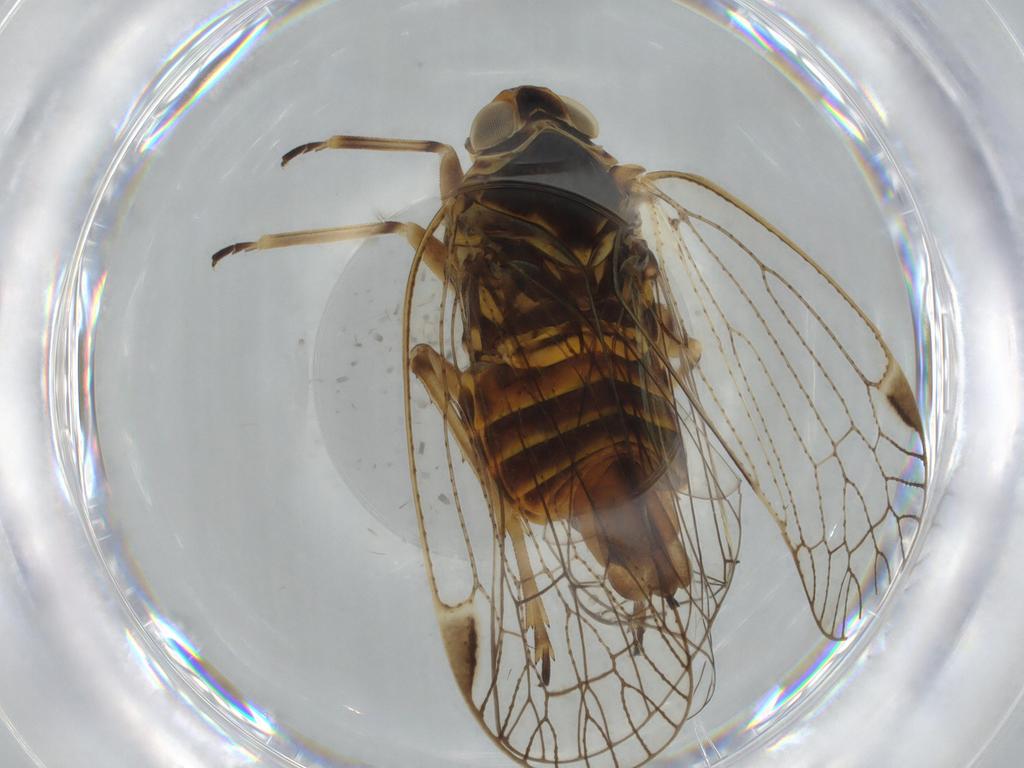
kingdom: Animalia
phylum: Arthropoda
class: Insecta
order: Hemiptera
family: Cixiidae
